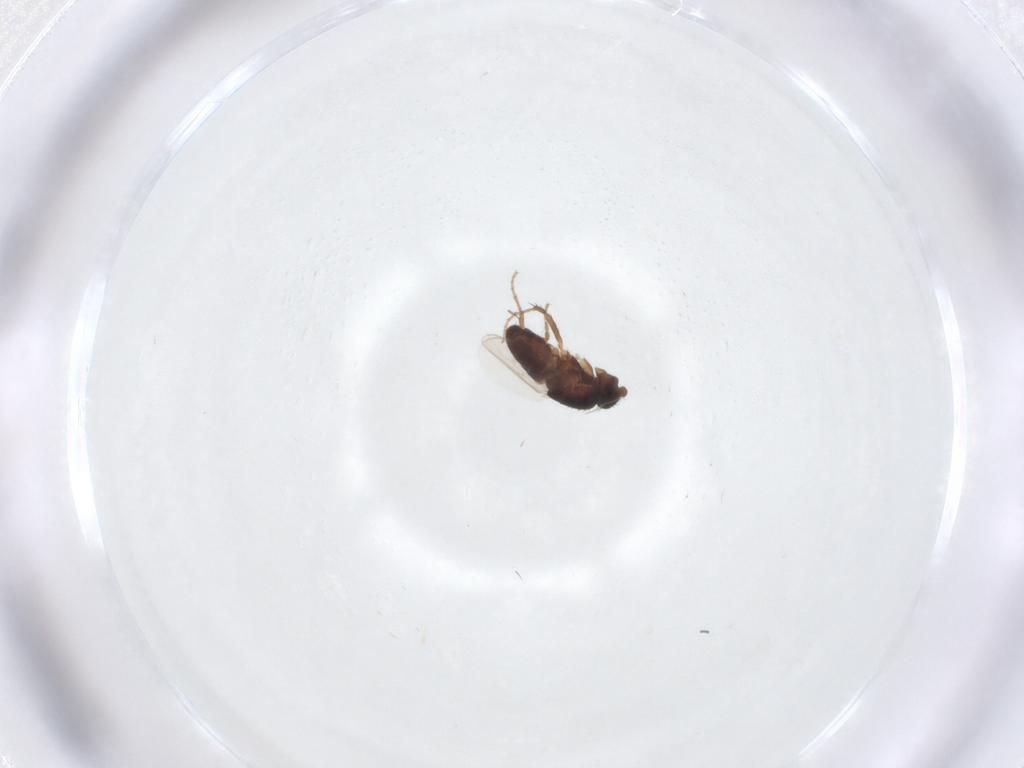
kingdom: Animalia
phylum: Arthropoda
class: Insecta
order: Diptera
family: Sphaeroceridae
